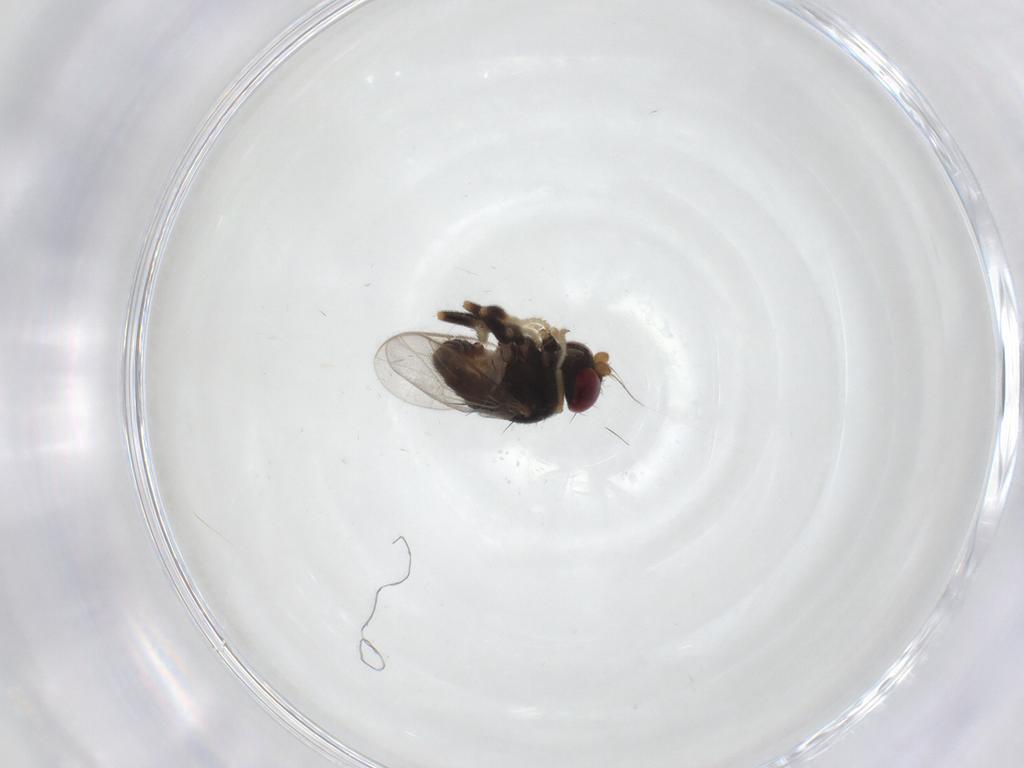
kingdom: Animalia
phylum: Arthropoda
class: Insecta
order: Diptera
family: Chloropidae
